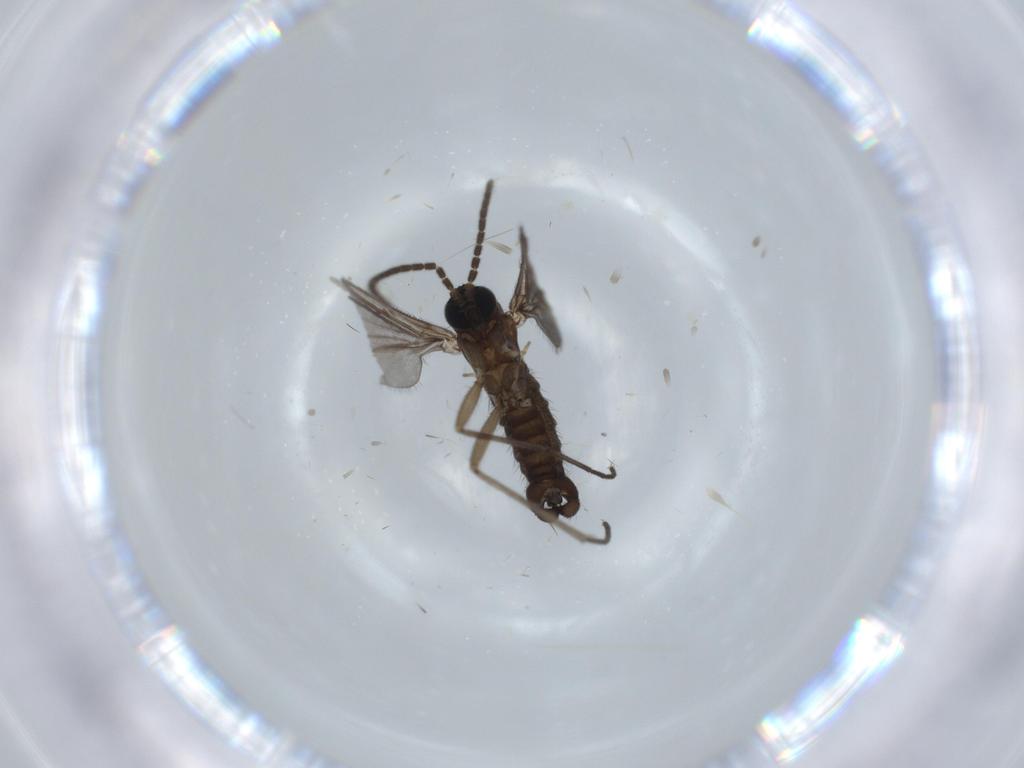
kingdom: Animalia
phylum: Arthropoda
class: Insecta
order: Diptera
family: Sciaridae
